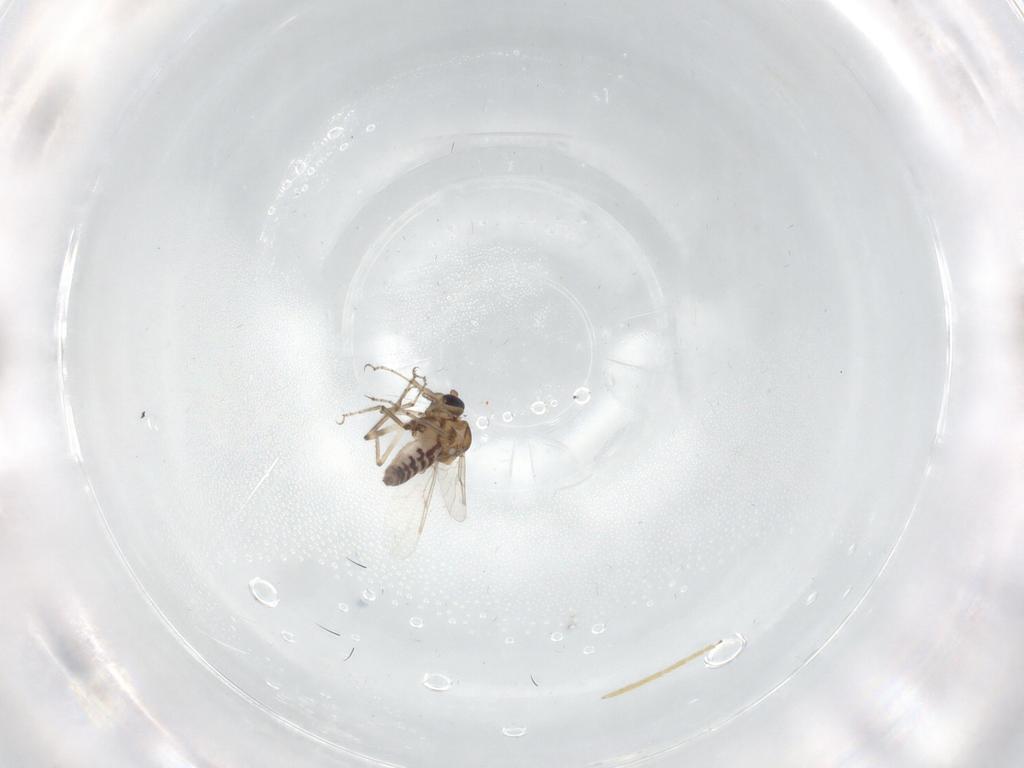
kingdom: Animalia
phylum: Arthropoda
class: Insecta
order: Diptera
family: Chironomidae
